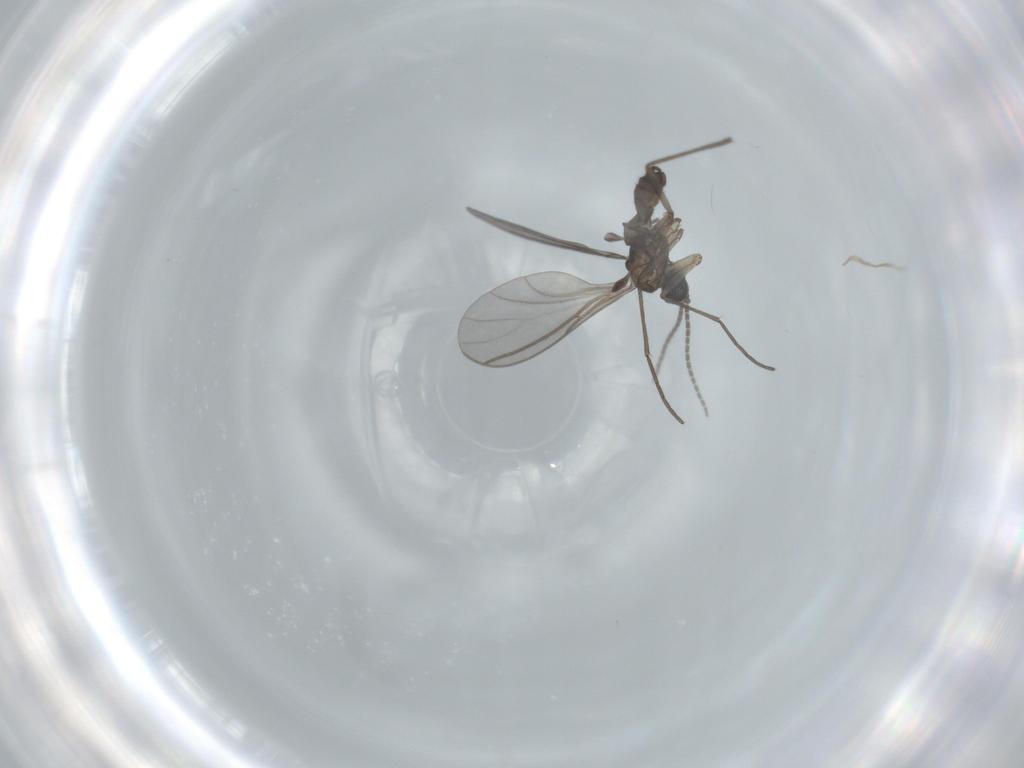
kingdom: Animalia
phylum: Arthropoda
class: Insecta
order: Diptera
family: Sciaridae
